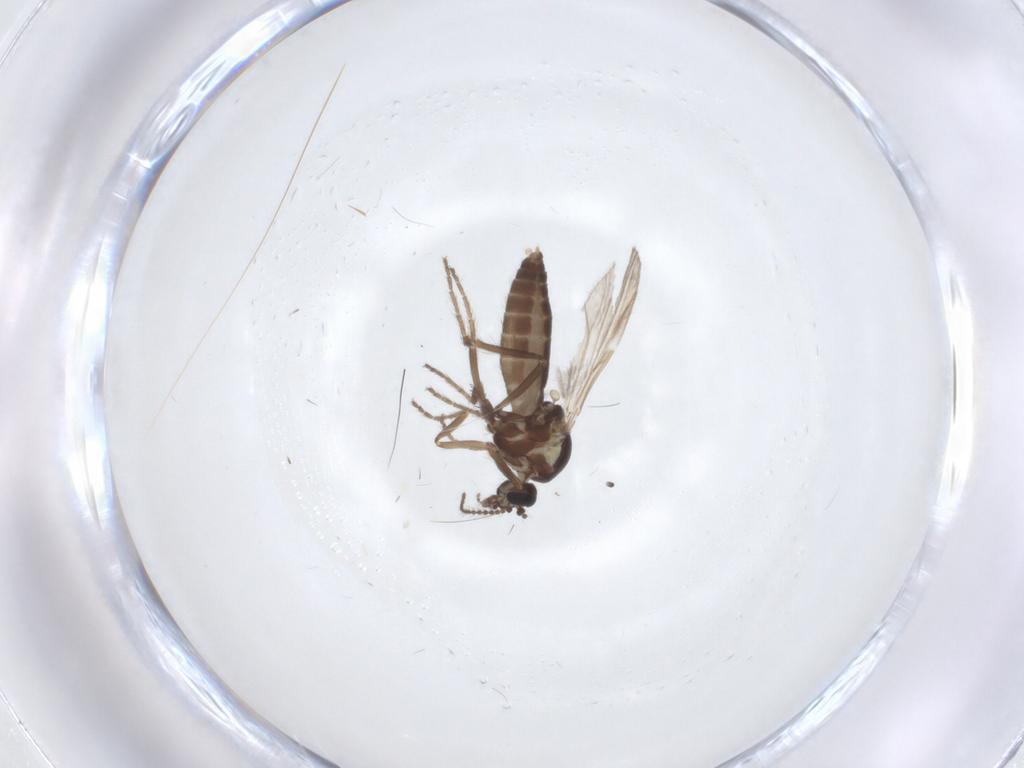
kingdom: Animalia
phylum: Arthropoda
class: Insecta
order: Diptera
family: Ceratopogonidae
